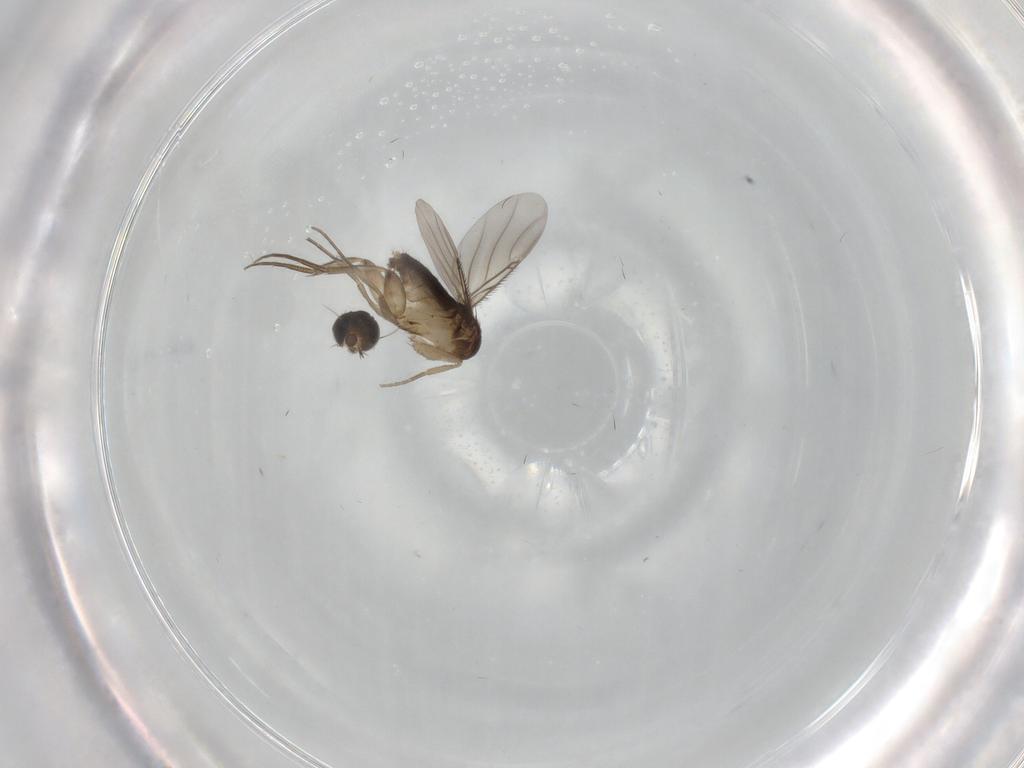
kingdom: Animalia
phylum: Arthropoda
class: Insecta
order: Diptera
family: Phoridae
